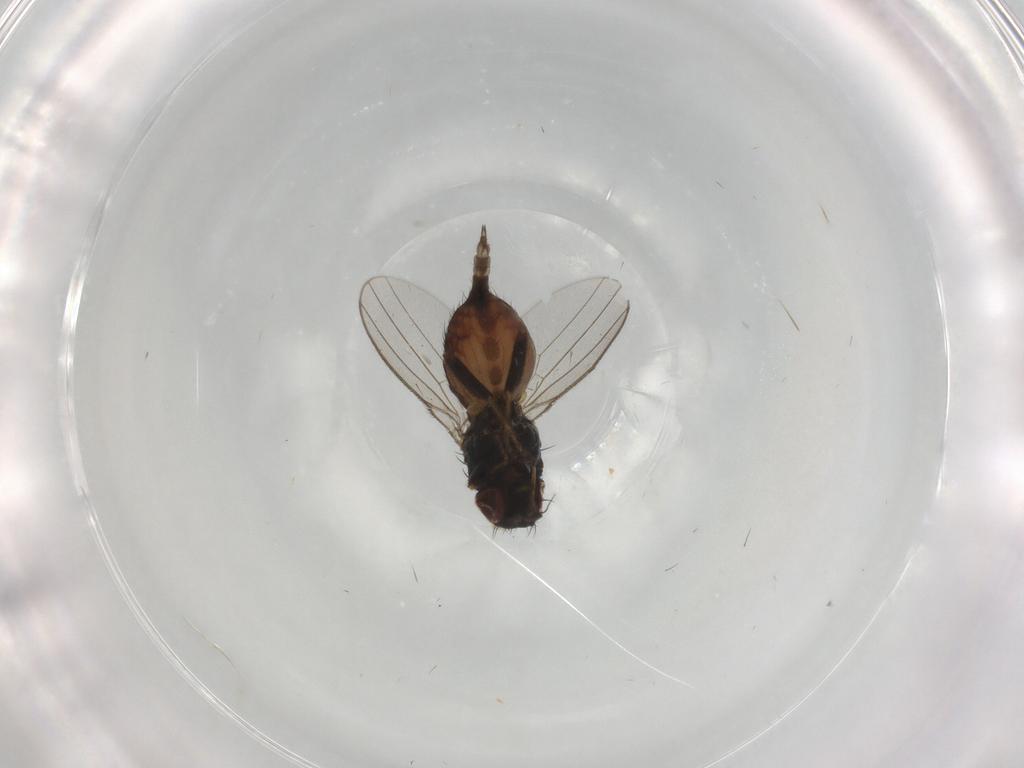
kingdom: Animalia
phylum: Arthropoda
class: Insecta
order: Diptera
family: Milichiidae
